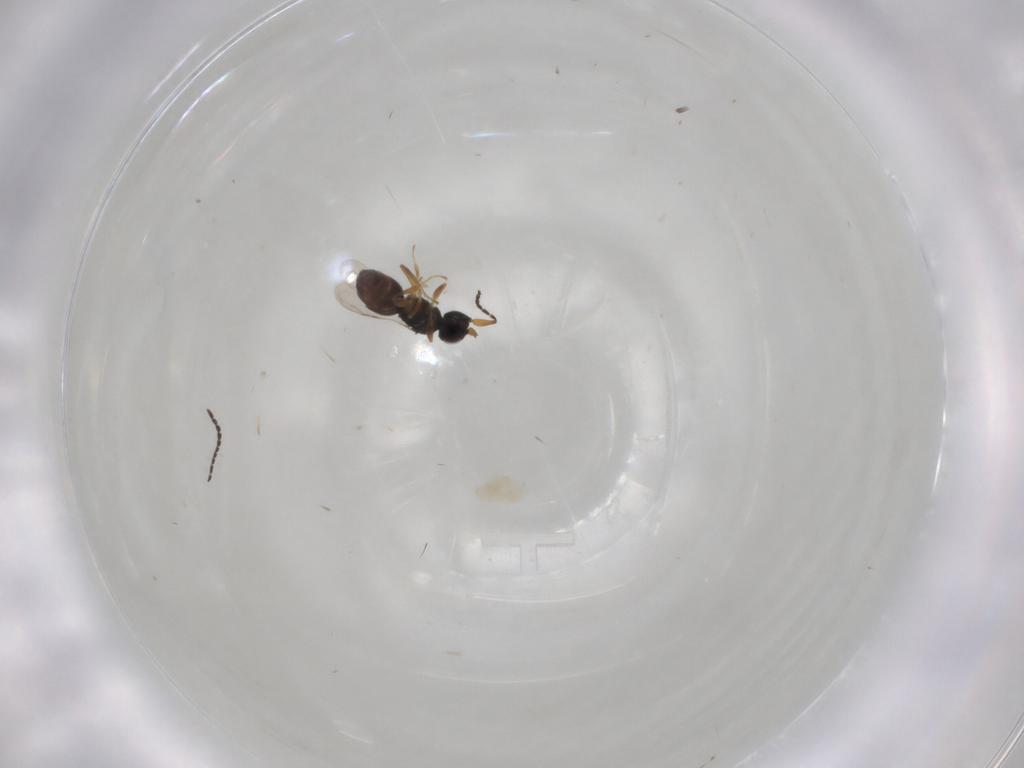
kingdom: Animalia
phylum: Arthropoda
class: Insecta
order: Hymenoptera
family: Ceraphronidae
